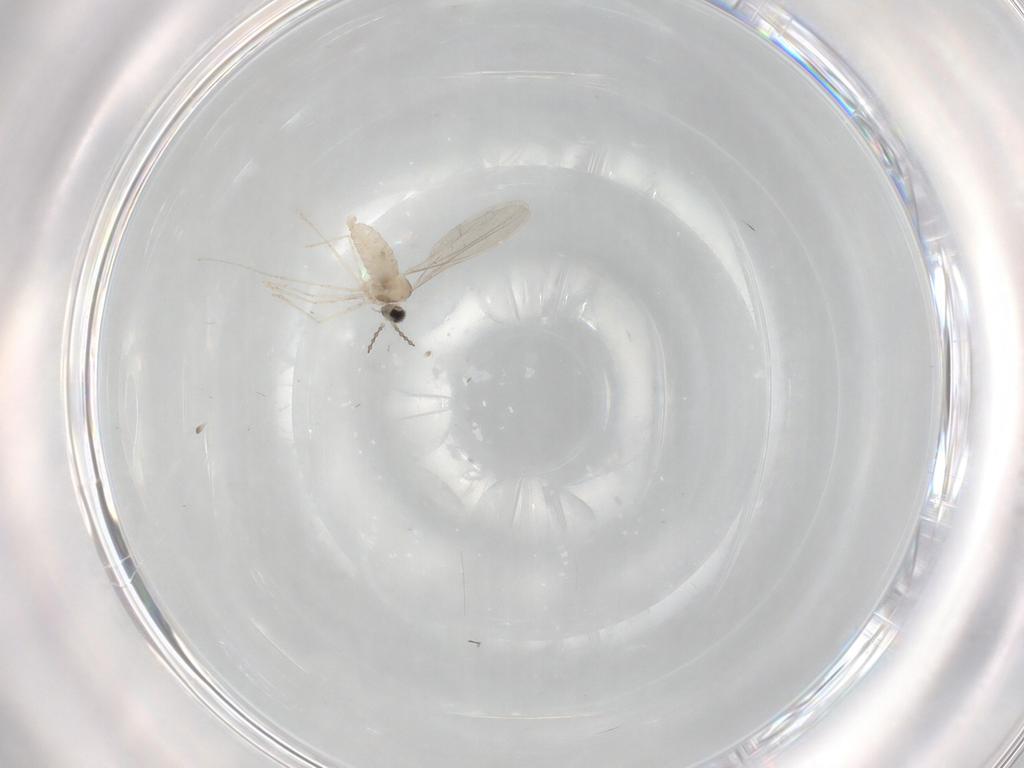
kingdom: Animalia
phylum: Arthropoda
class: Insecta
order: Diptera
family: Cecidomyiidae
